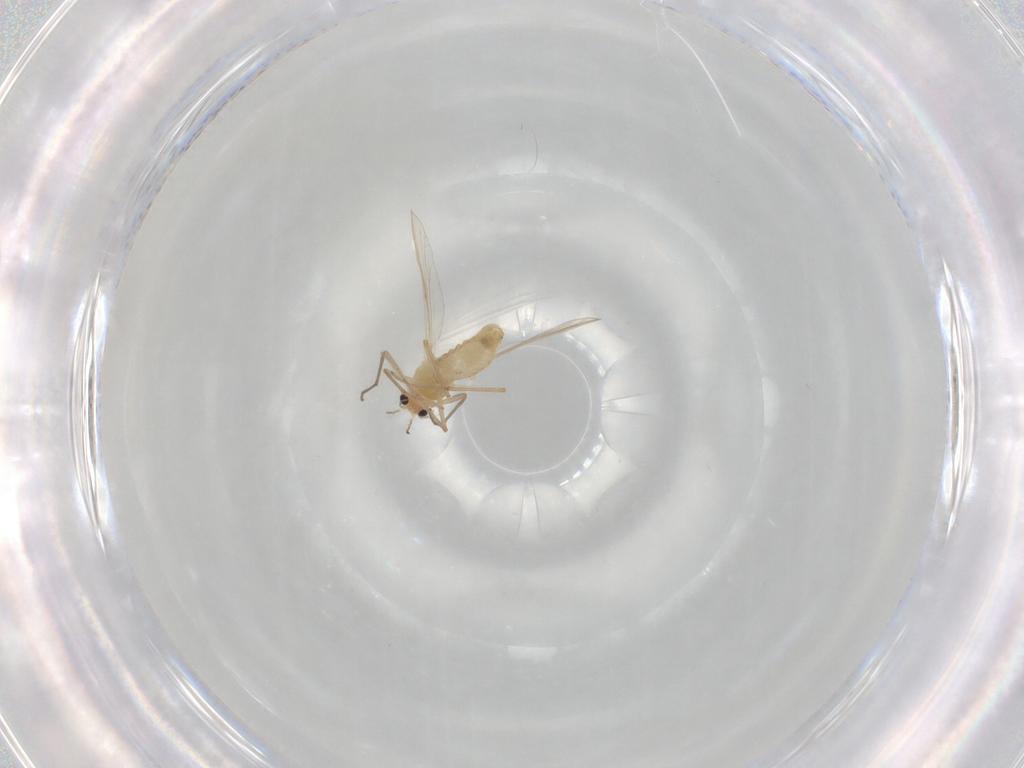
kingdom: Animalia
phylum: Arthropoda
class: Insecta
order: Diptera
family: Chironomidae
